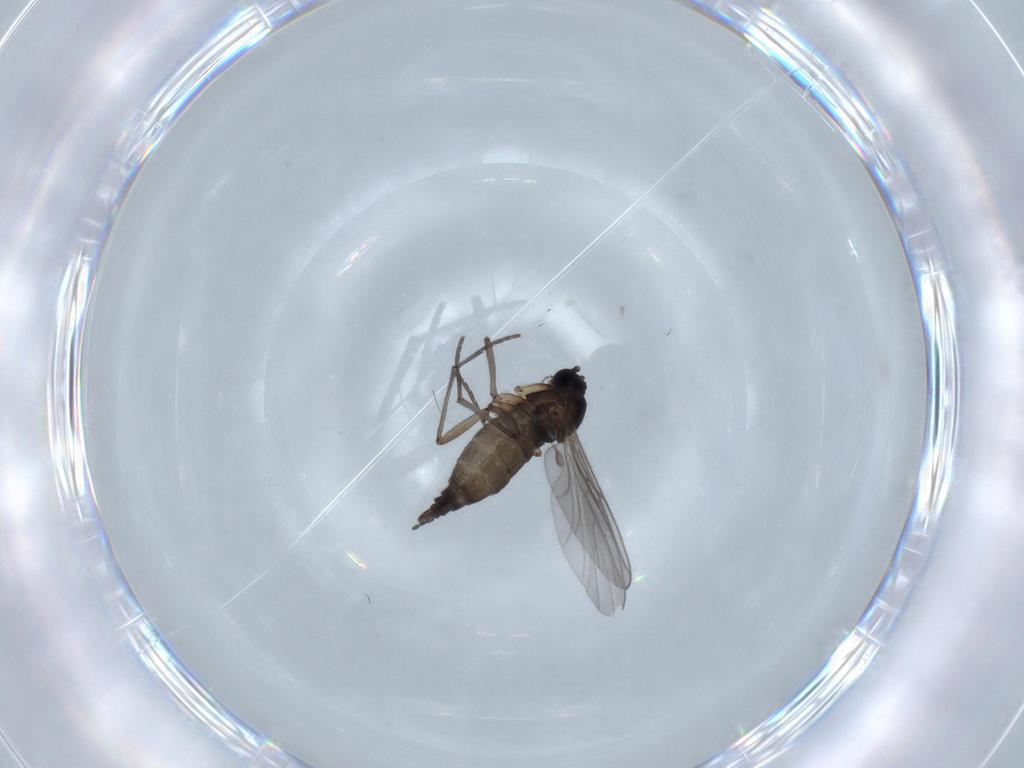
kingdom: Animalia
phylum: Arthropoda
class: Insecta
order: Diptera
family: Sciaridae
